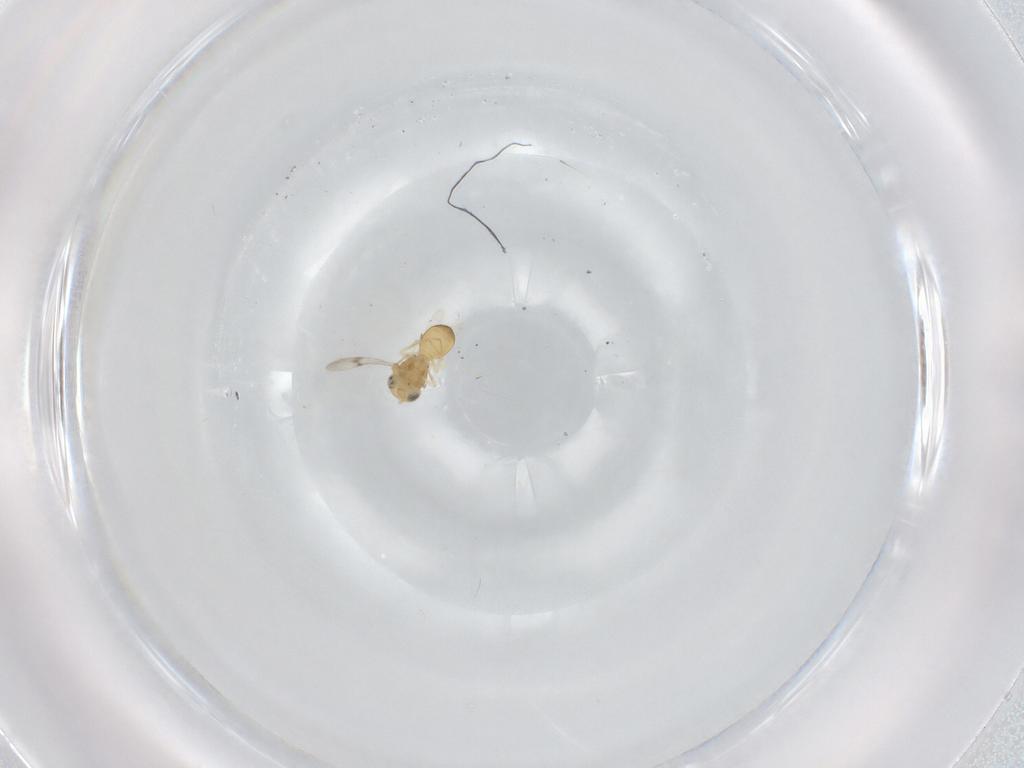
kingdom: Animalia
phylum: Arthropoda
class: Insecta
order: Hymenoptera
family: Scelionidae
